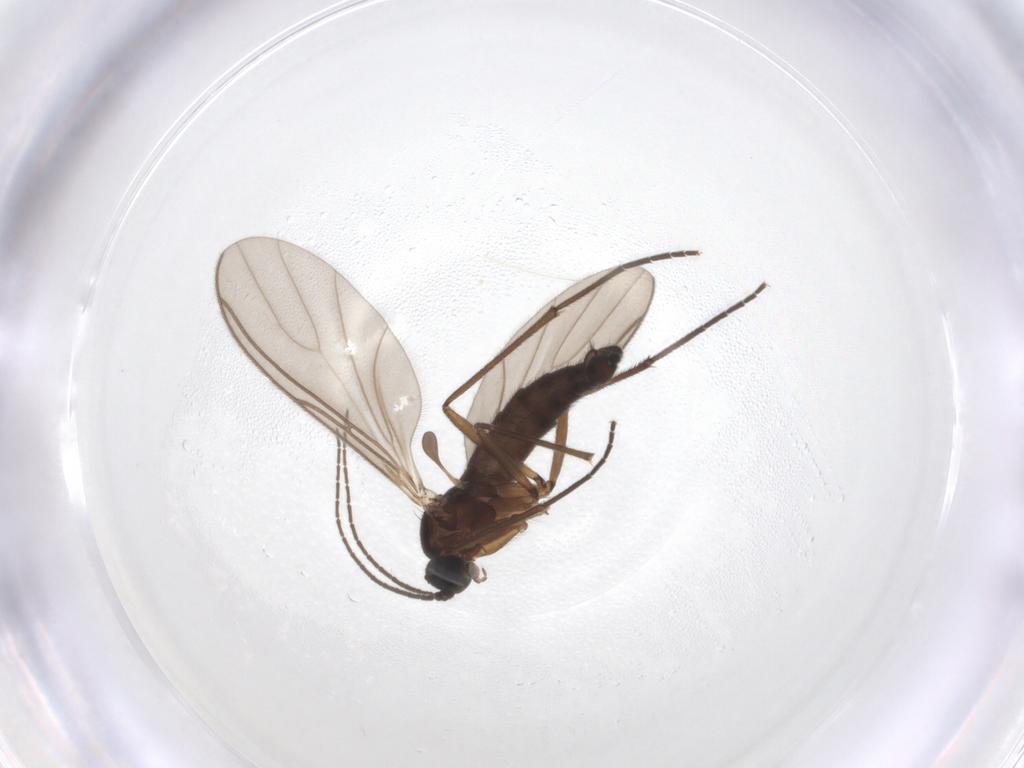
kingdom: Animalia
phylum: Arthropoda
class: Insecta
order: Diptera
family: Sciaridae
